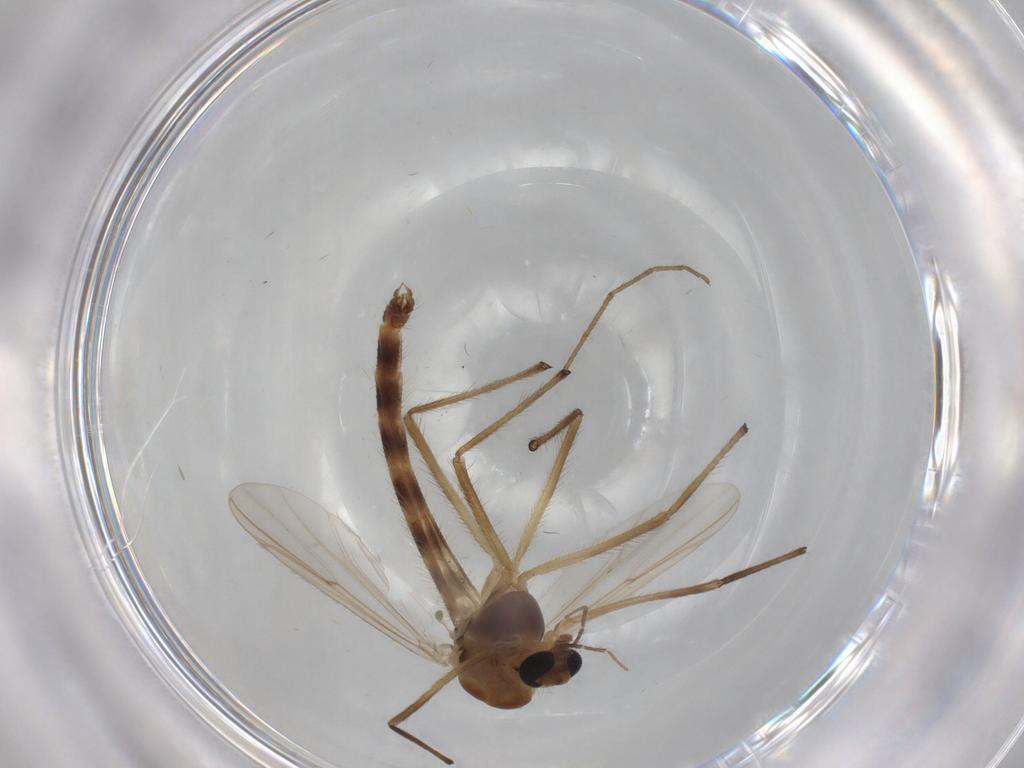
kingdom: Animalia
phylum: Arthropoda
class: Insecta
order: Diptera
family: Chironomidae
